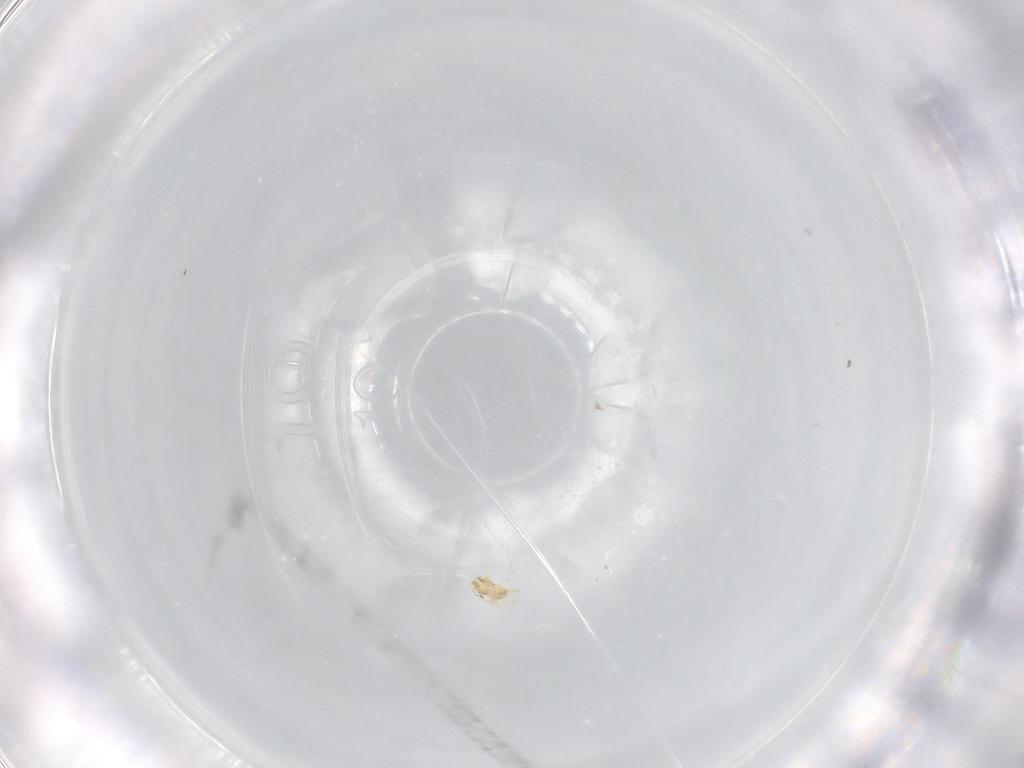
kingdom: Animalia
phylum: Arthropoda
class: Insecta
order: Hymenoptera
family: Trichogrammatidae
